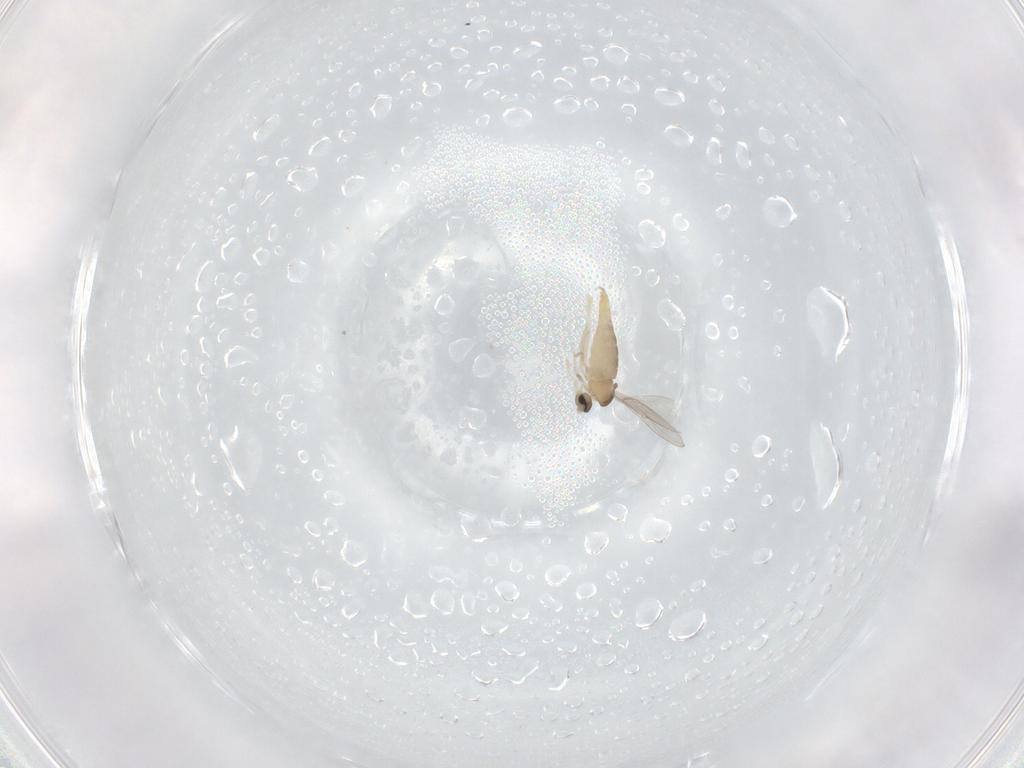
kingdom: Animalia
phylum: Arthropoda
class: Insecta
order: Diptera
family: Cecidomyiidae
